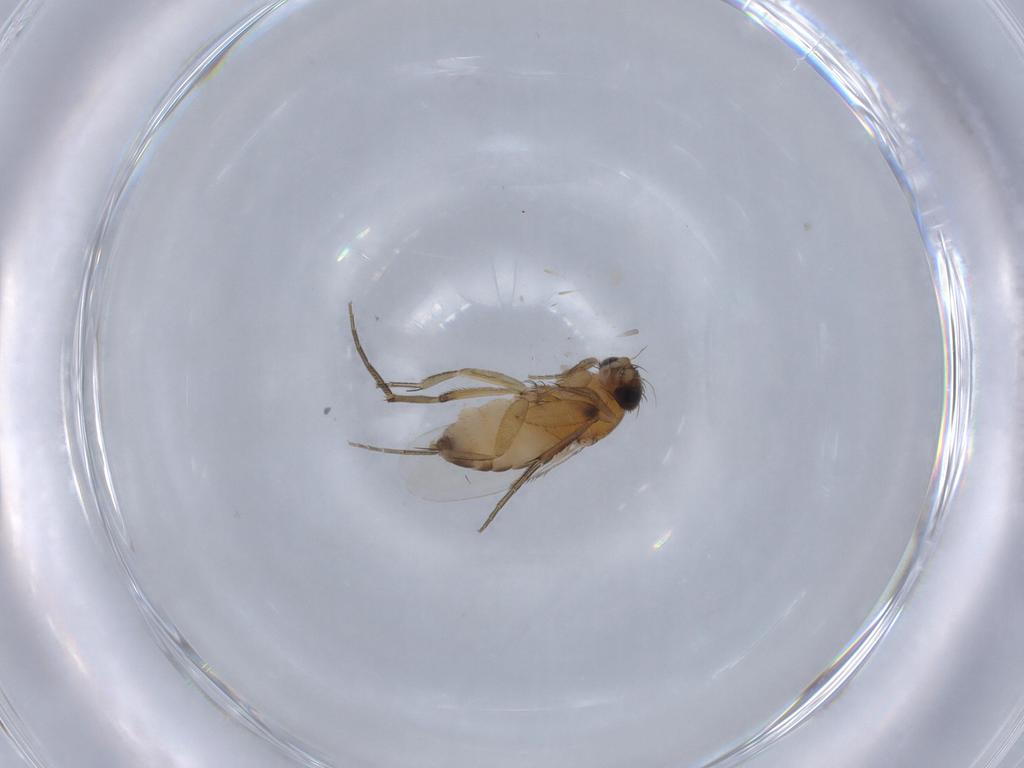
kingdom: Animalia
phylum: Arthropoda
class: Insecta
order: Diptera
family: Phoridae
